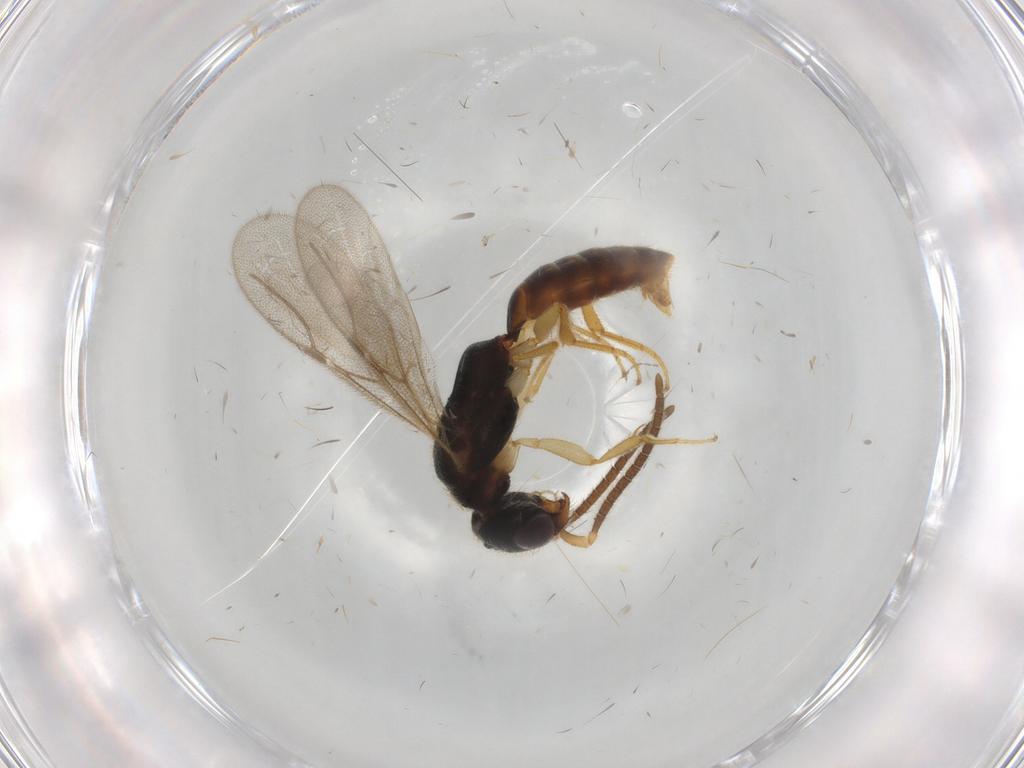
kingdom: Animalia
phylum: Arthropoda
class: Insecta
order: Hymenoptera
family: Bethylidae
